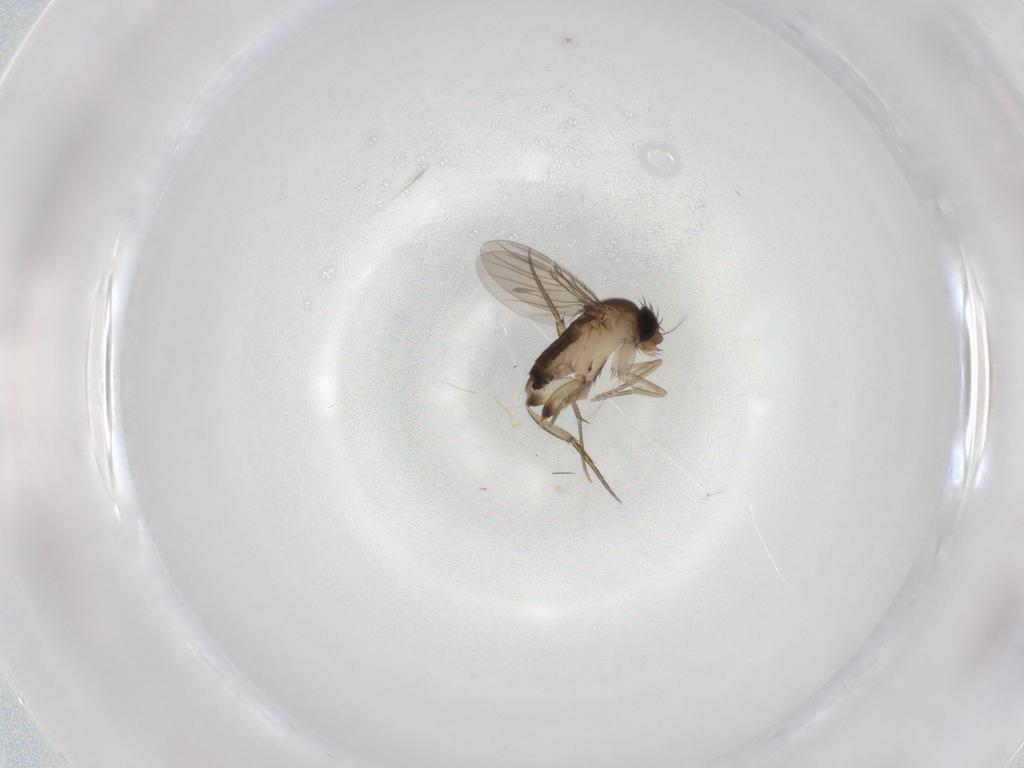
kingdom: Animalia
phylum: Arthropoda
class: Insecta
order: Diptera
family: Phoridae
